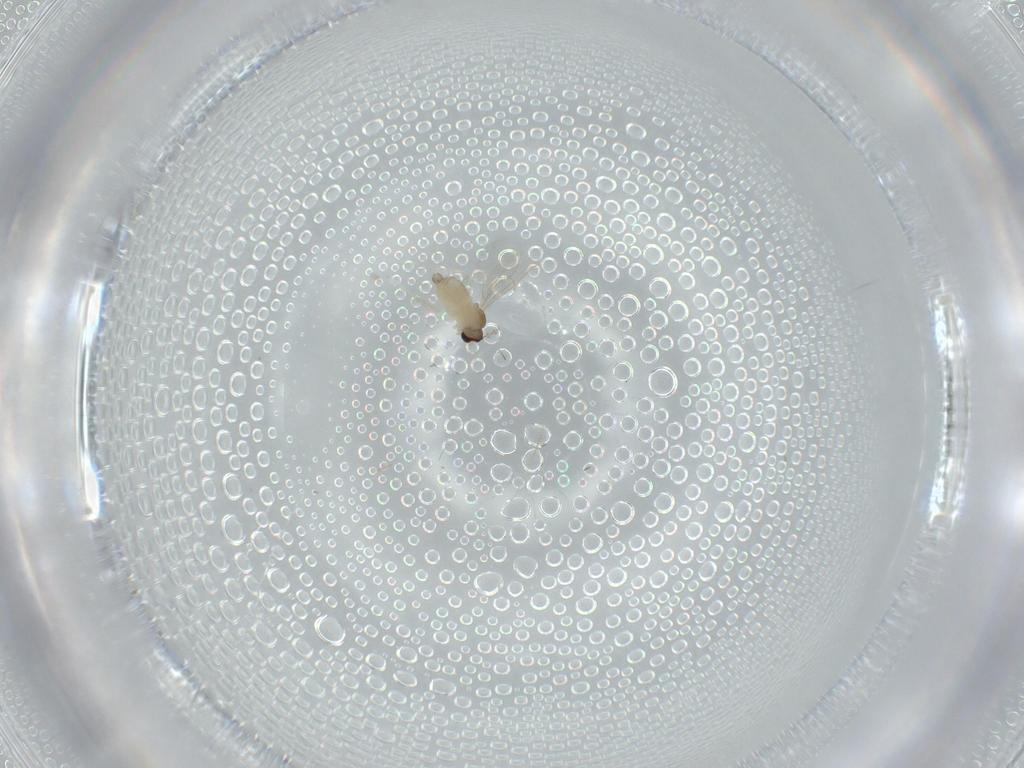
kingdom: Animalia
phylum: Arthropoda
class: Insecta
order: Diptera
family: Cecidomyiidae
